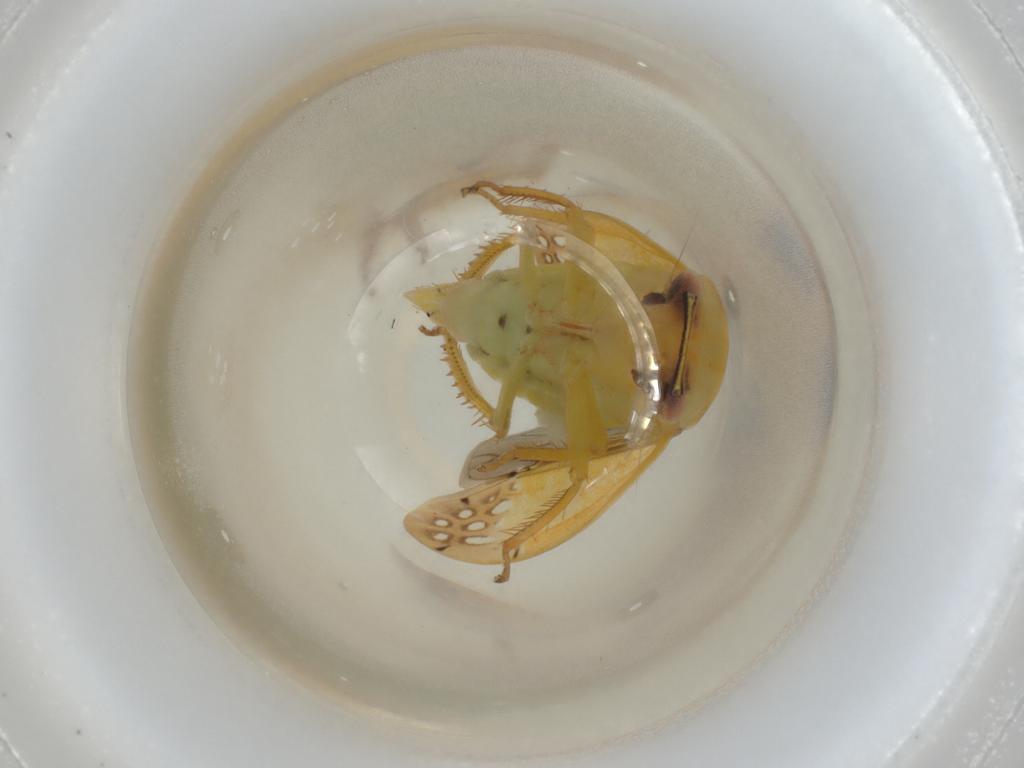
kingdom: Animalia
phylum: Arthropoda
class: Insecta
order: Hemiptera
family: Cicadellidae
